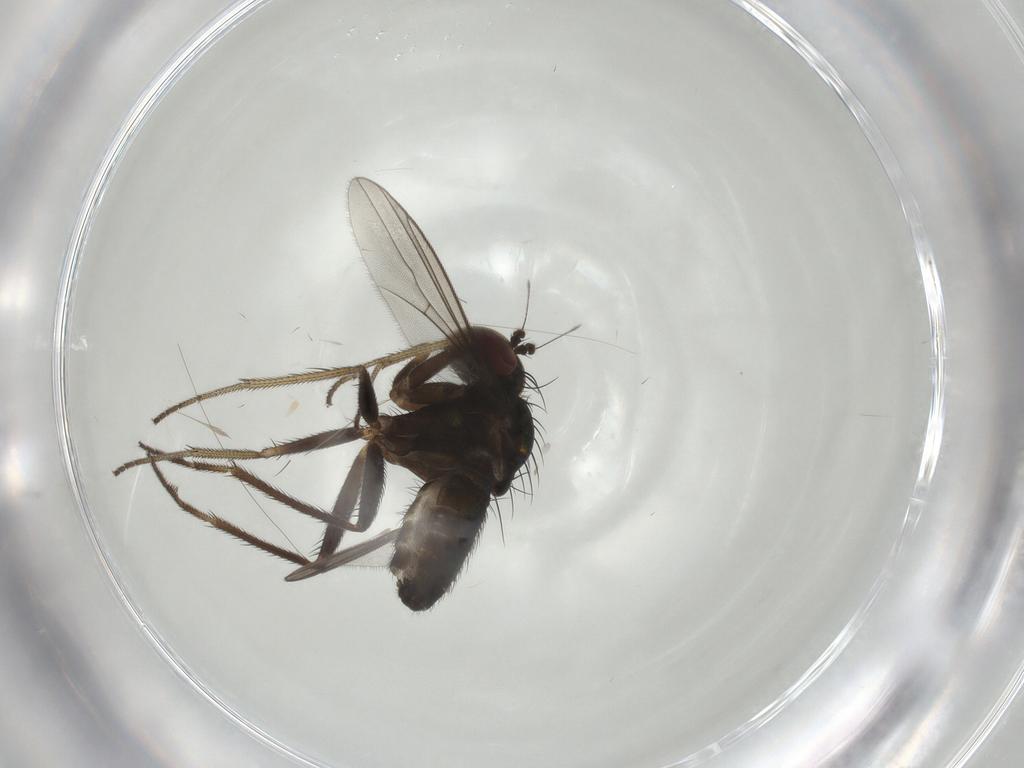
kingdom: Animalia
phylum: Arthropoda
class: Insecta
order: Diptera
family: Dolichopodidae
